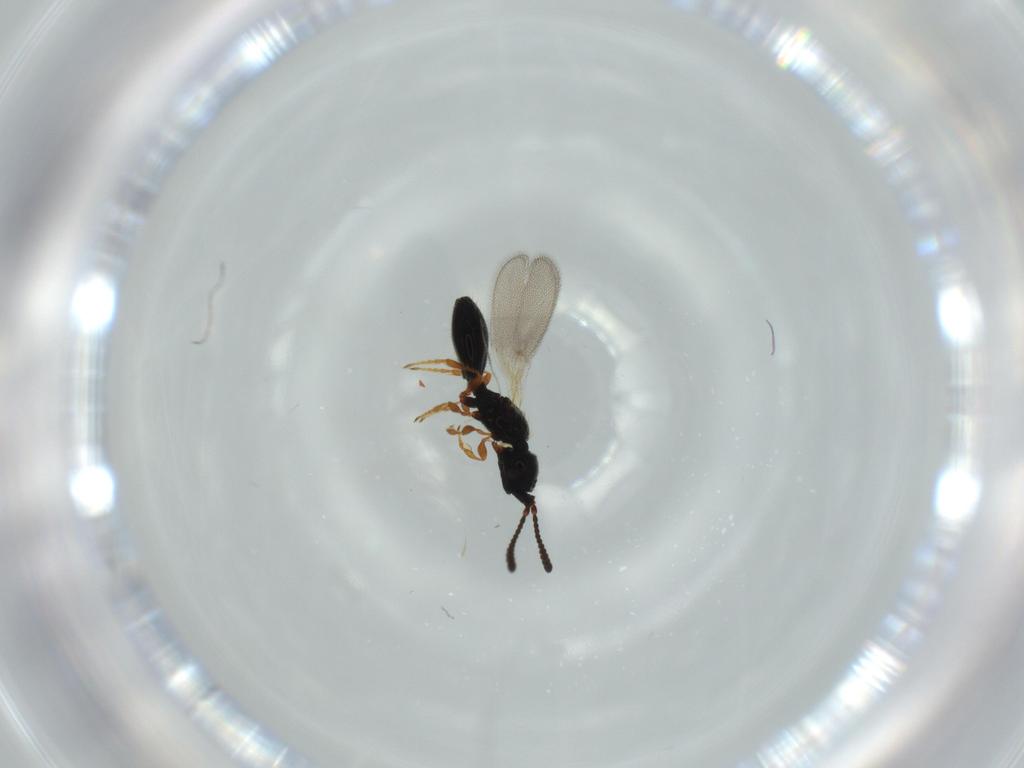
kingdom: Animalia
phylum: Arthropoda
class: Insecta
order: Hymenoptera
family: Diapriidae
